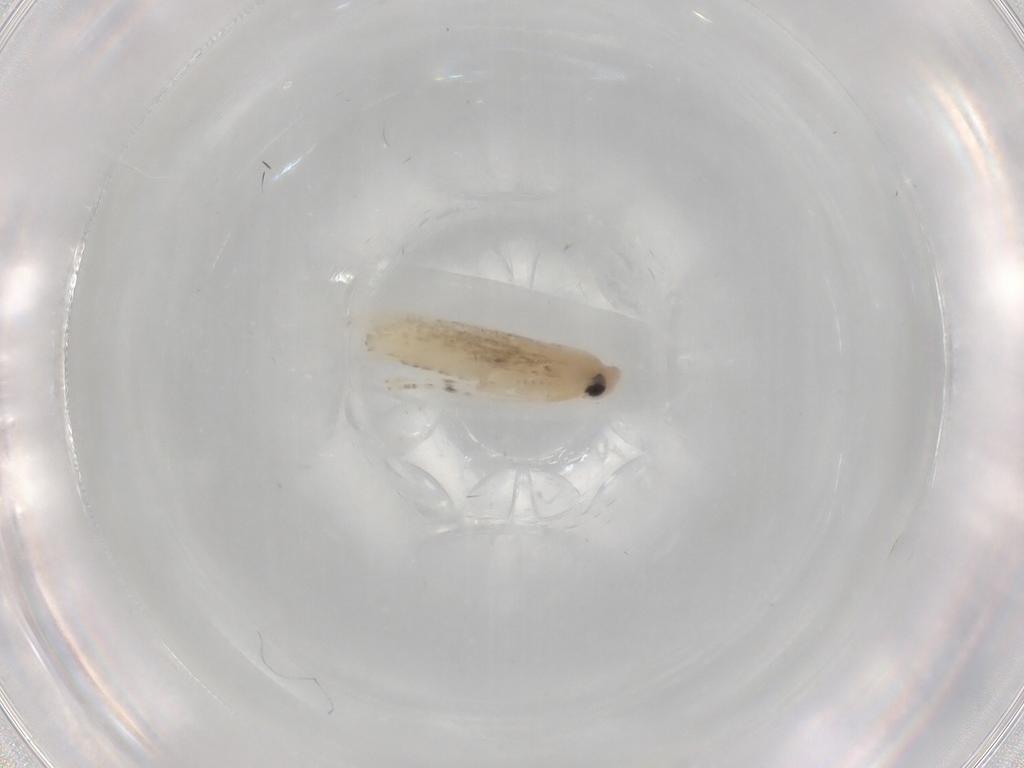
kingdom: Animalia
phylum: Arthropoda
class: Insecta
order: Lepidoptera
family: Gracillariidae
